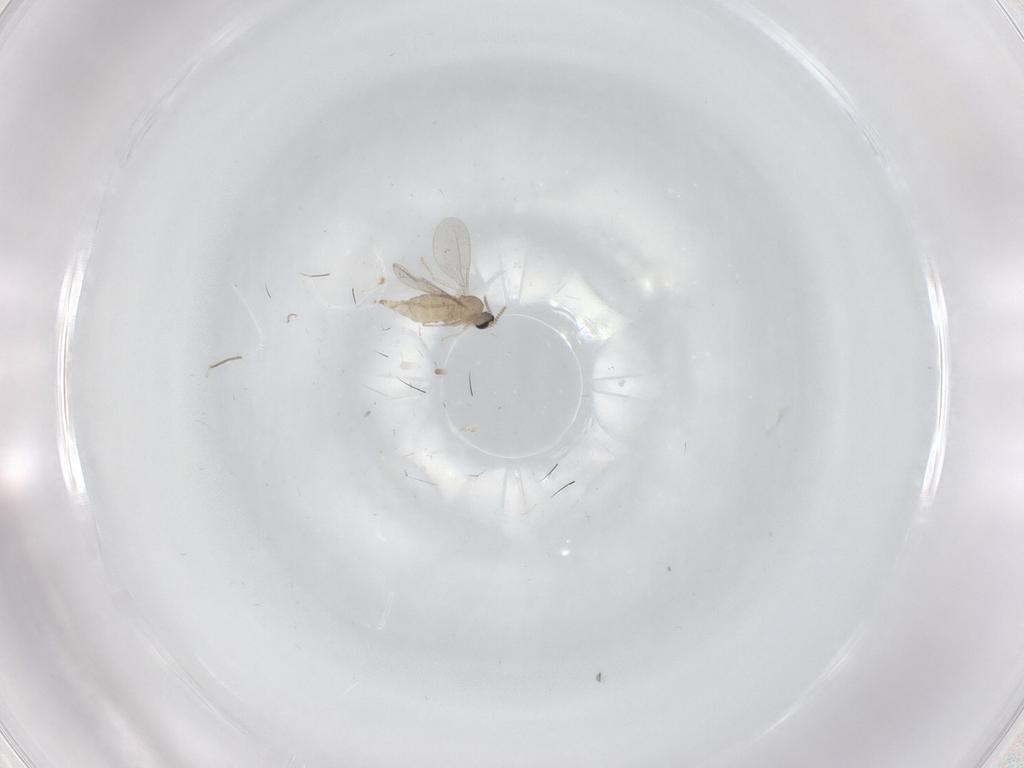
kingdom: Animalia
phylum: Arthropoda
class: Insecta
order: Diptera
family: Cecidomyiidae
